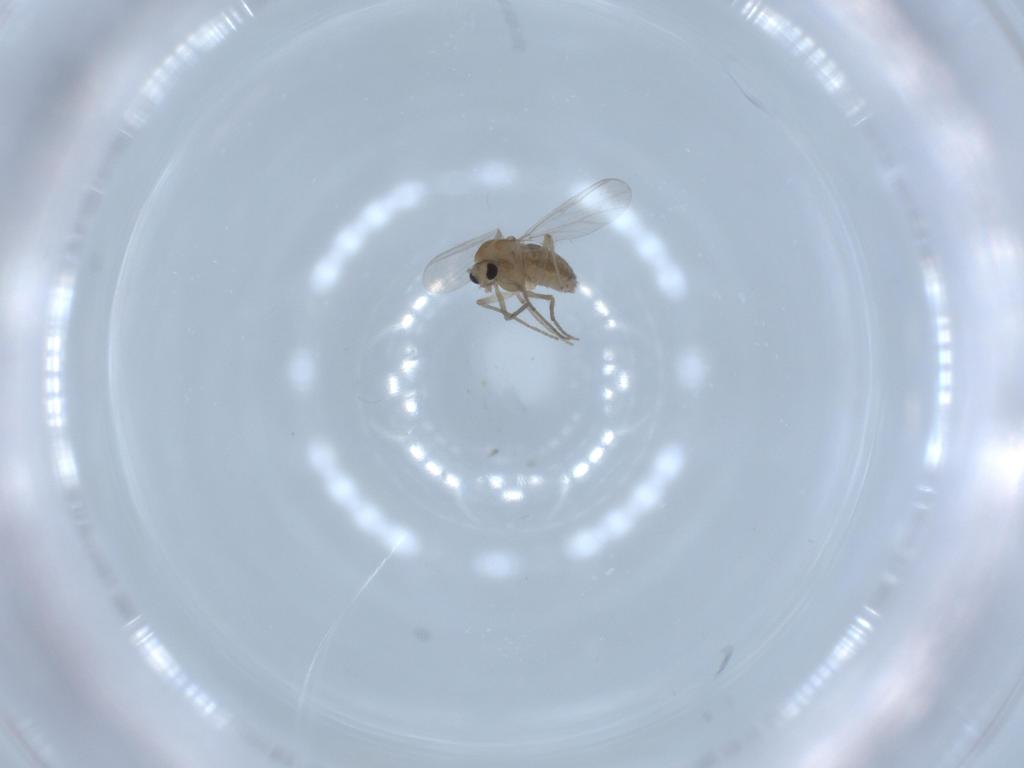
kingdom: Animalia
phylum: Arthropoda
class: Insecta
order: Diptera
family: Chironomidae
